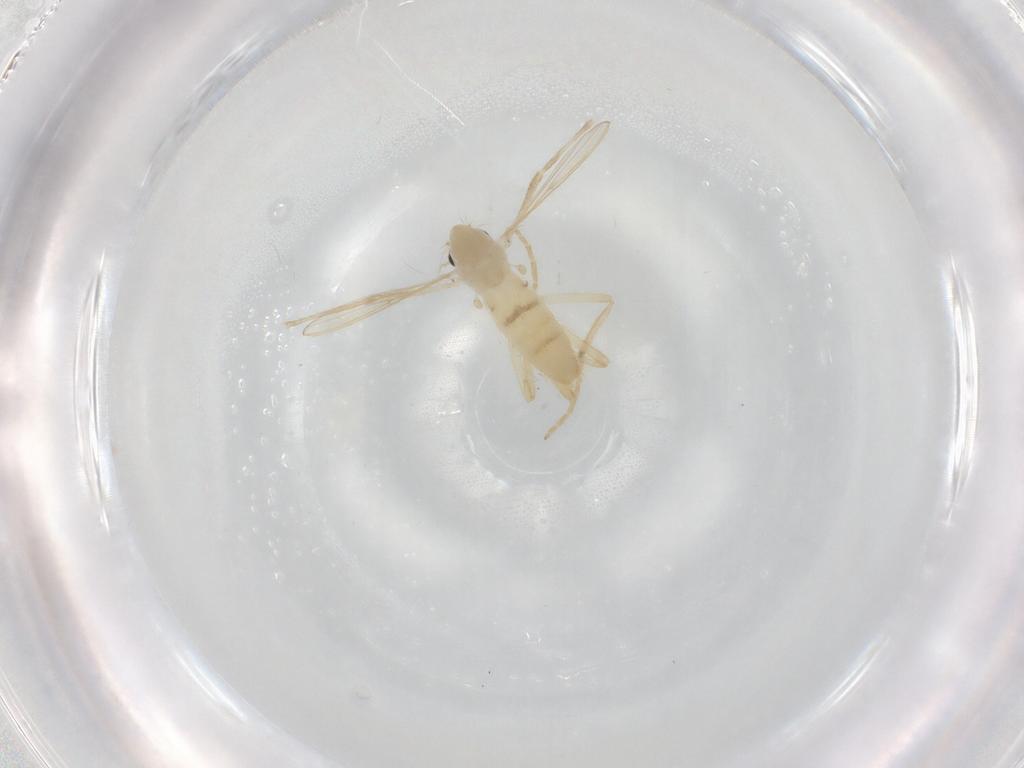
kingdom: Animalia
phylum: Arthropoda
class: Insecta
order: Diptera
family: Chironomidae
